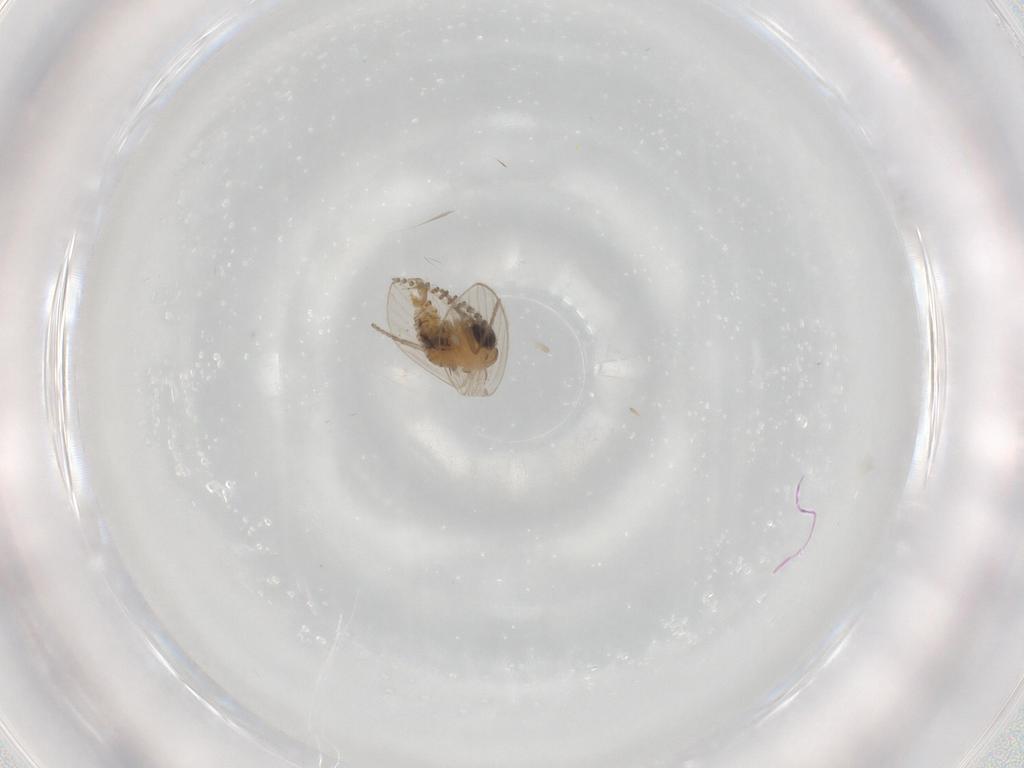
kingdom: Animalia
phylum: Arthropoda
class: Insecta
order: Diptera
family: Psychodidae
